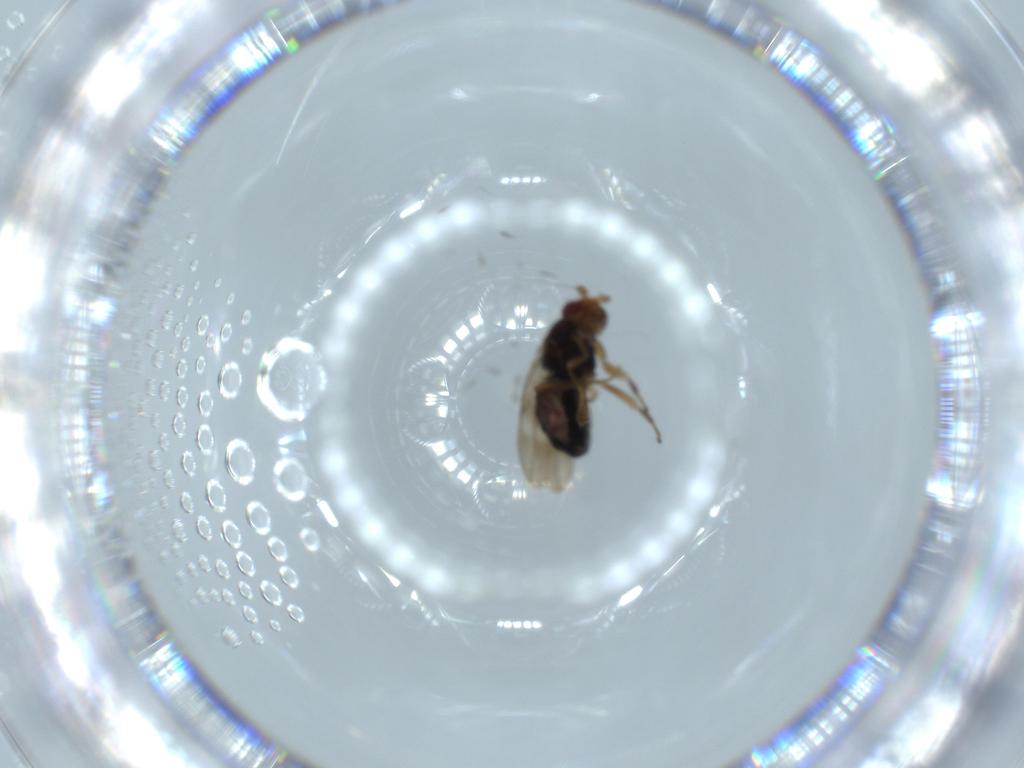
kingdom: Animalia
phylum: Arthropoda
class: Insecta
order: Diptera
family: Sphaeroceridae
